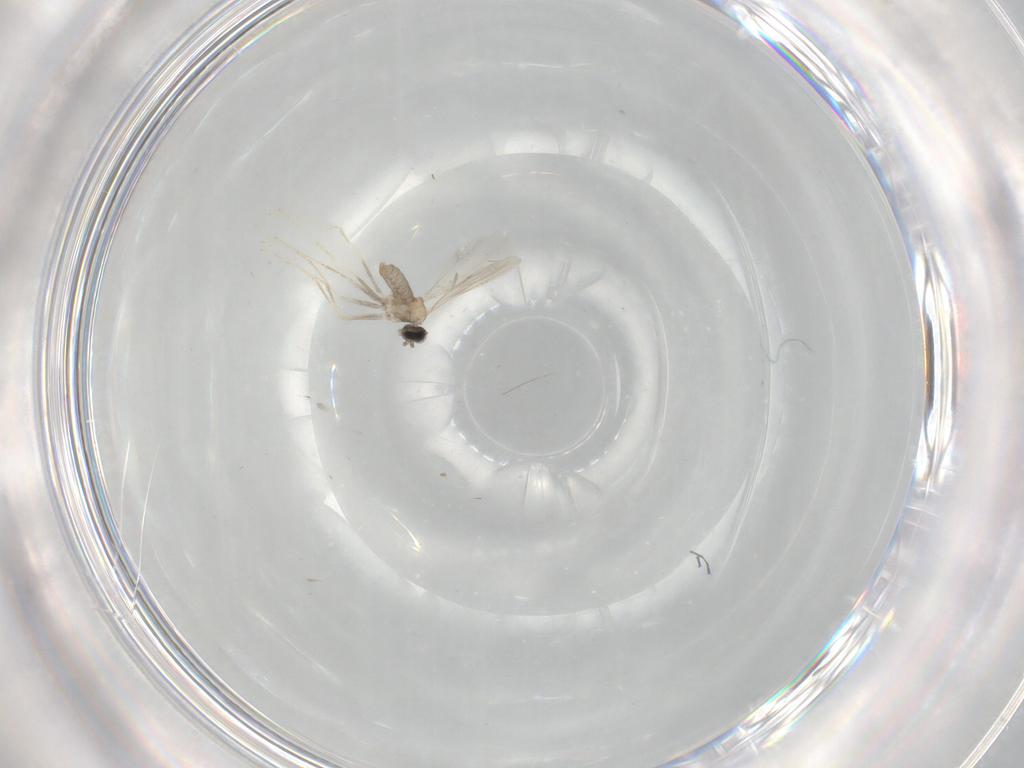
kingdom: Animalia
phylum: Arthropoda
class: Insecta
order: Diptera
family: Cecidomyiidae
